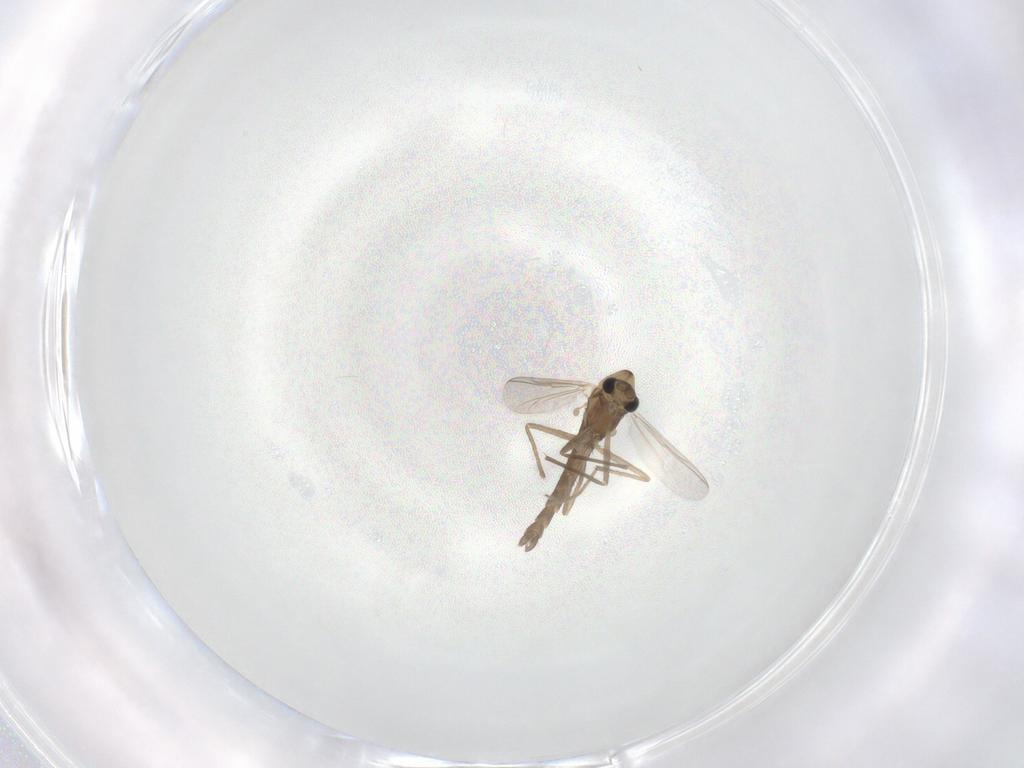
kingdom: Animalia
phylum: Arthropoda
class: Insecta
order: Diptera
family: Chironomidae
